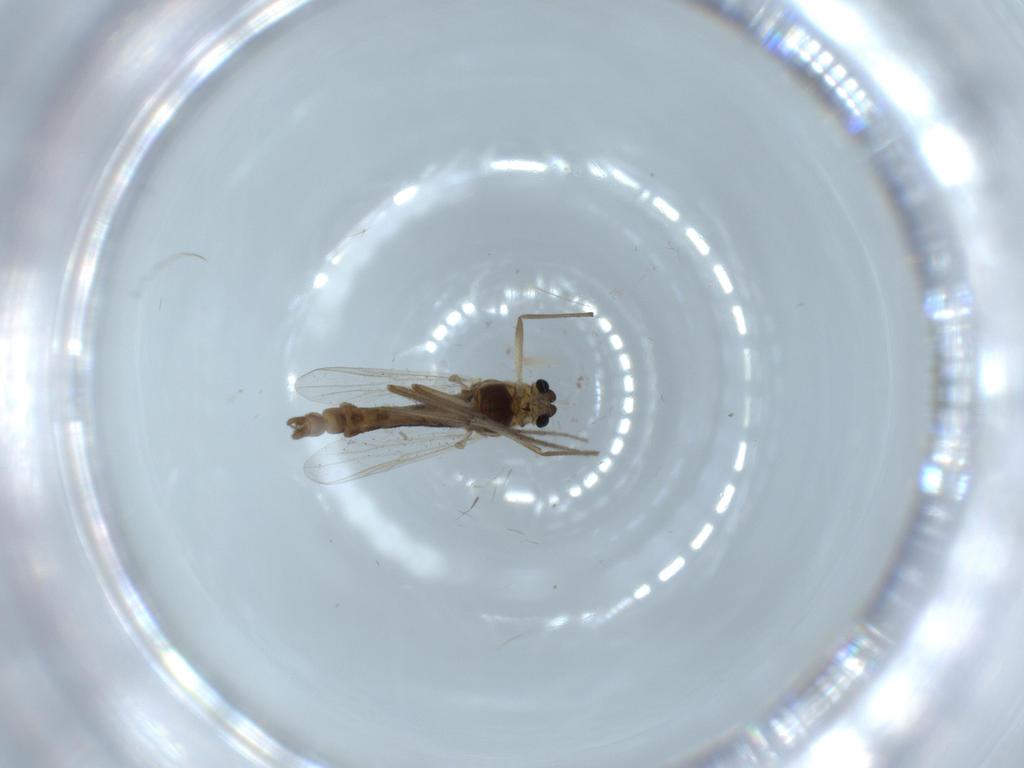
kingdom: Animalia
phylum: Arthropoda
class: Insecta
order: Diptera
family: Chironomidae
